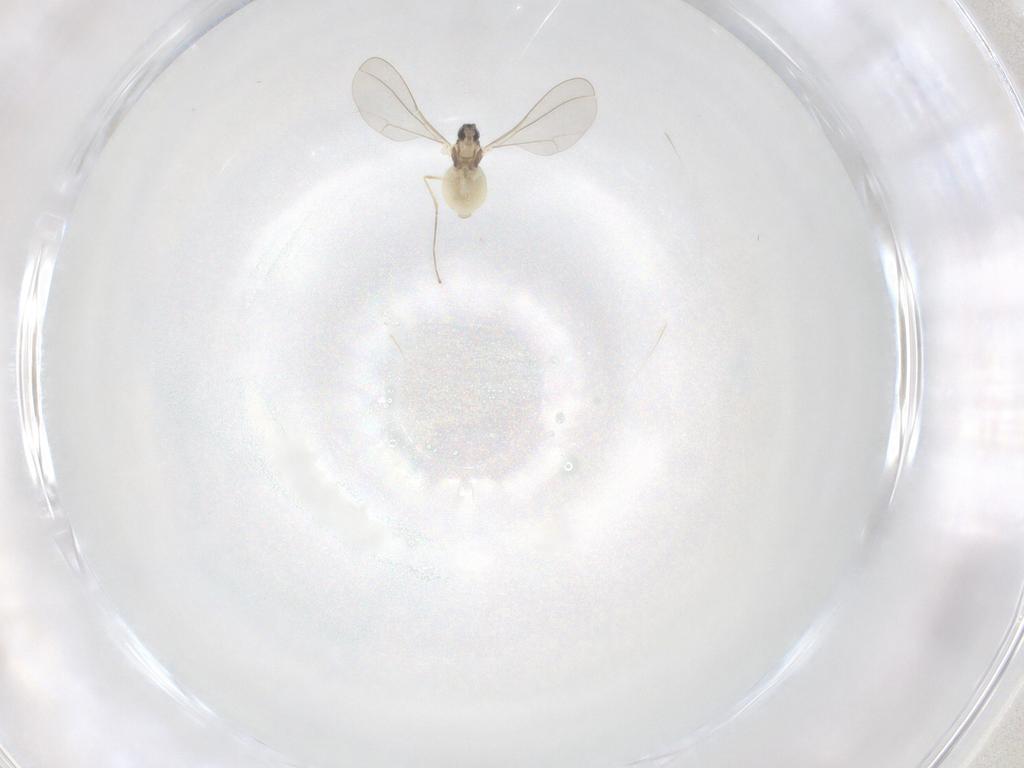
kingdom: Animalia
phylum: Arthropoda
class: Insecta
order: Diptera
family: Cecidomyiidae
